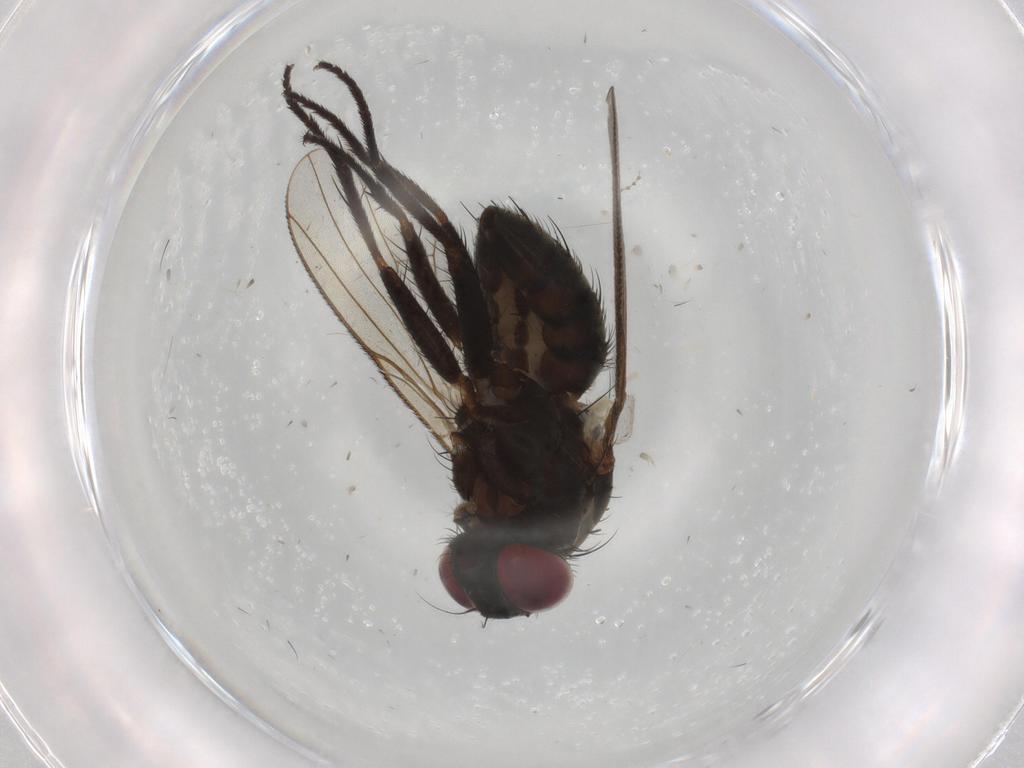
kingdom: Animalia
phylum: Arthropoda
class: Insecta
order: Diptera
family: Muscidae
